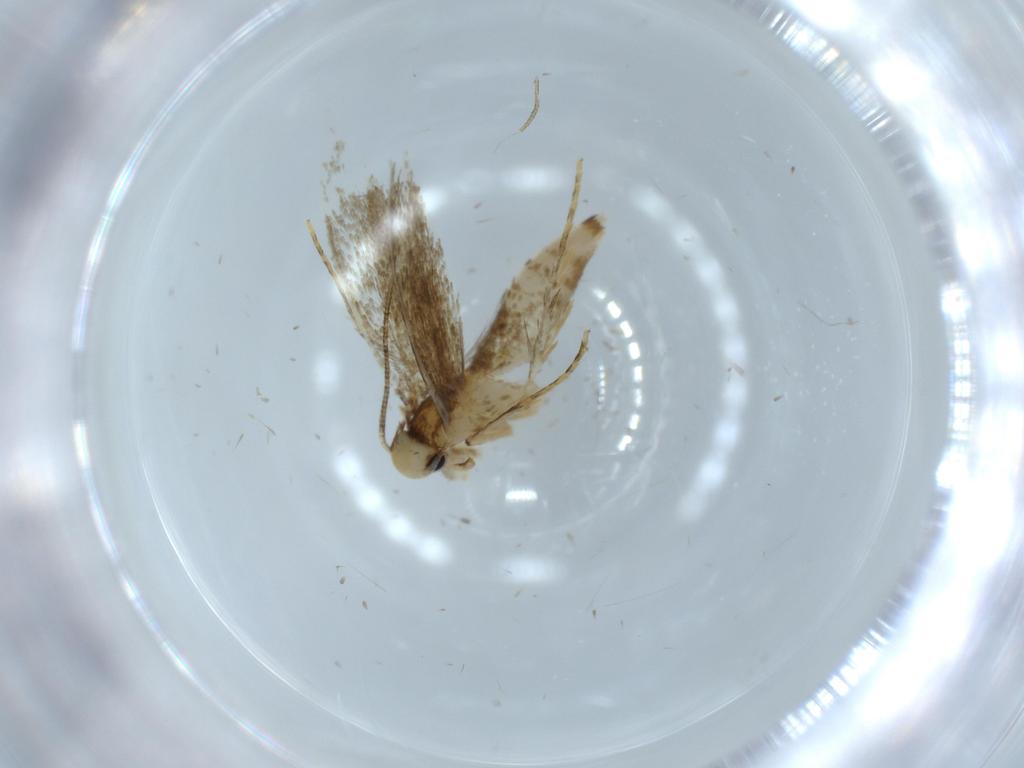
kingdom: Animalia
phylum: Arthropoda
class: Insecta
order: Lepidoptera
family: Tineidae
